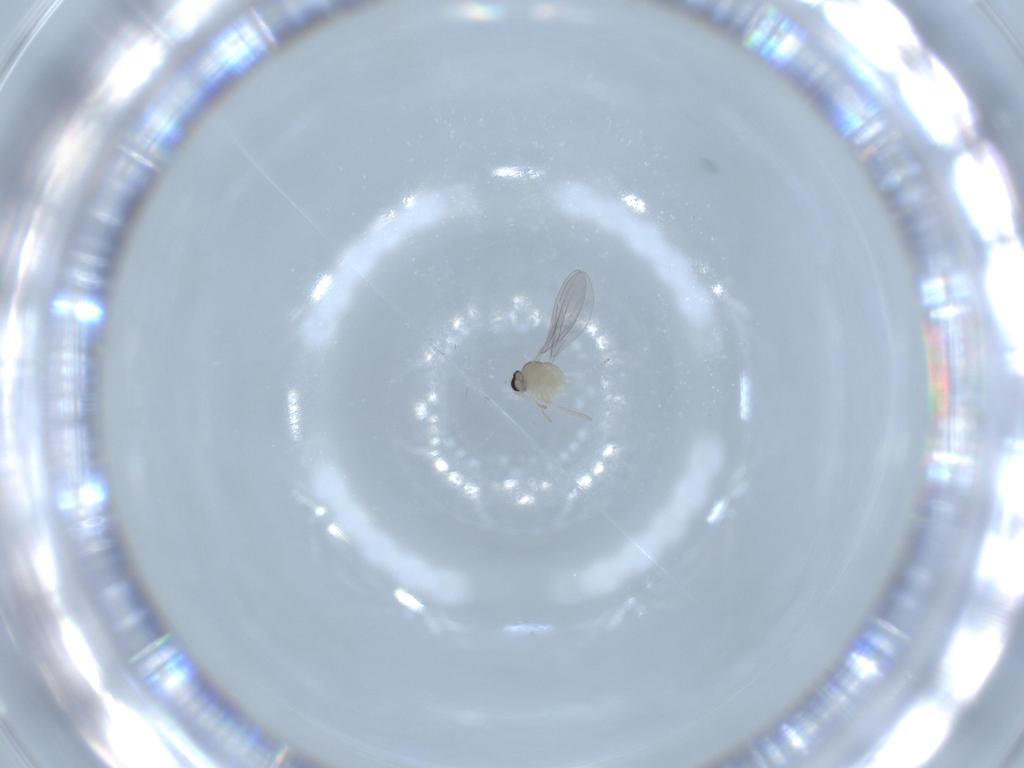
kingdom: Animalia
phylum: Arthropoda
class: Insecta
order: Diptera
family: Cecidomyiidae
